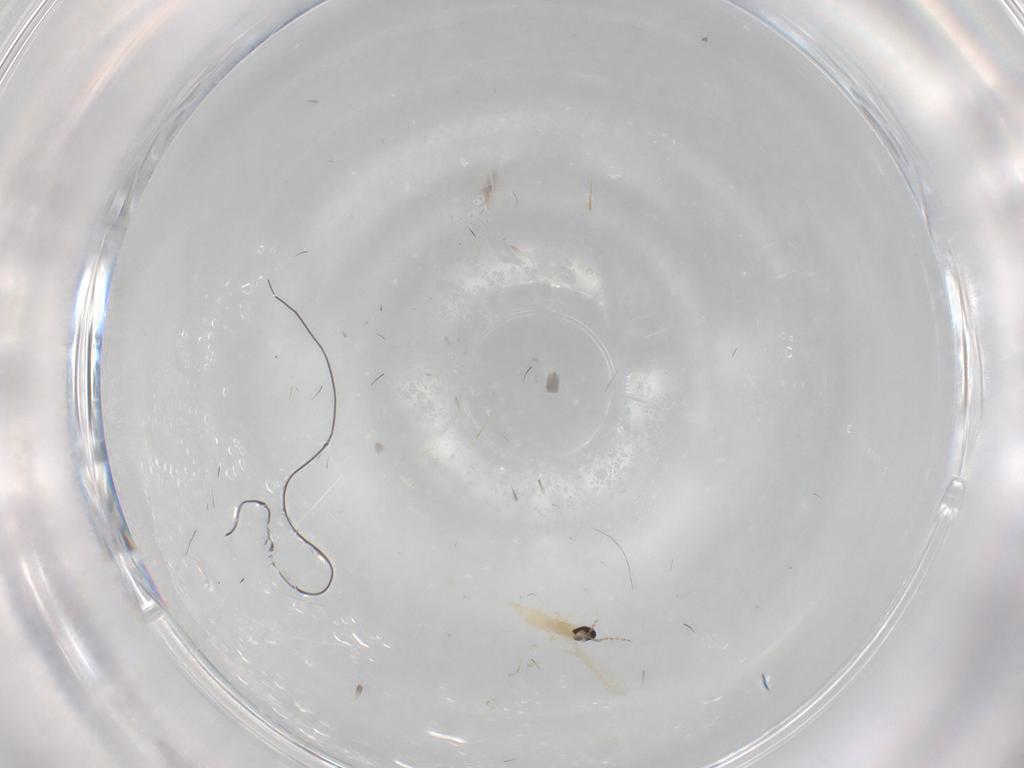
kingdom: Animalia
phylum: Arthropoda
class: Insecta
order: Diptera
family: Cecidomyiidae
